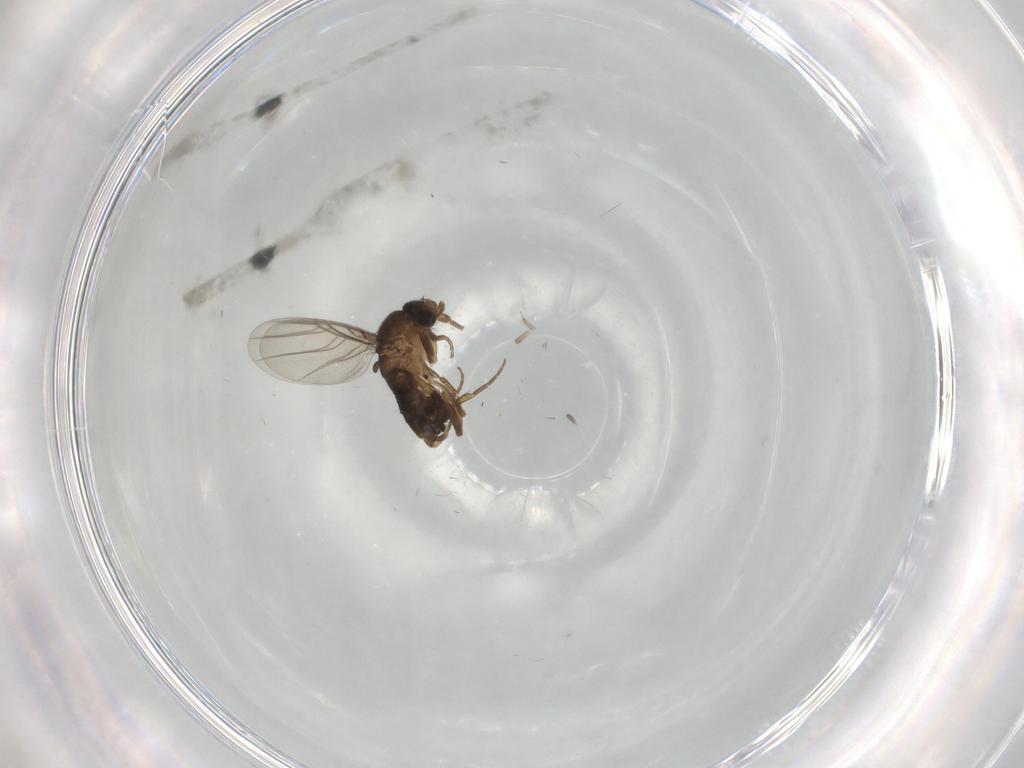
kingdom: Animalia
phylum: Arthropoda
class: Insecta
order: Diptera
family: Phoridae
